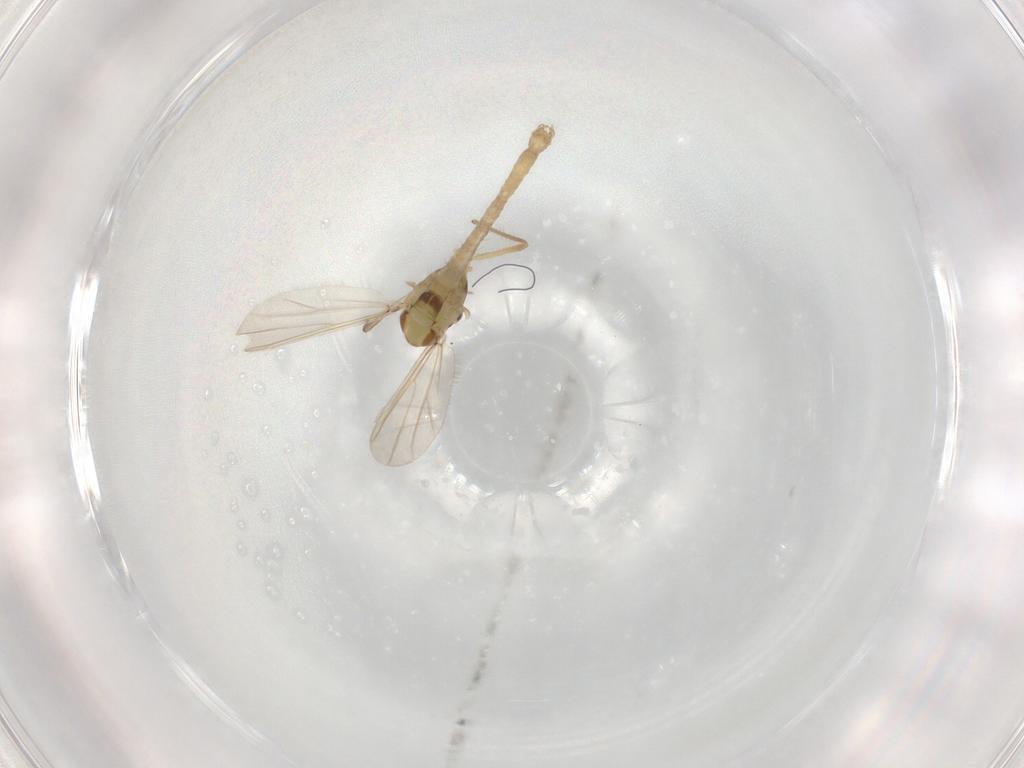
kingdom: Animalia
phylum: Arthropoda
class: Insecta
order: Diptera
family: Chironomidae
